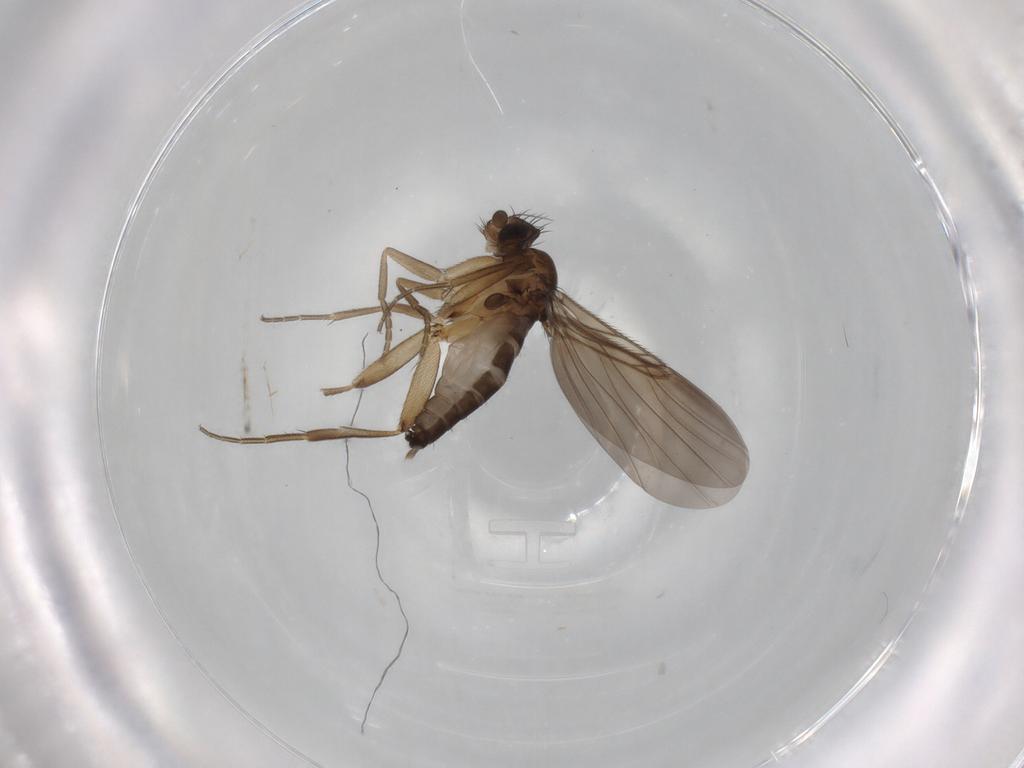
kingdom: Animalia
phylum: Arthropoda
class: Insecta
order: Diptera
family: Phoridae
